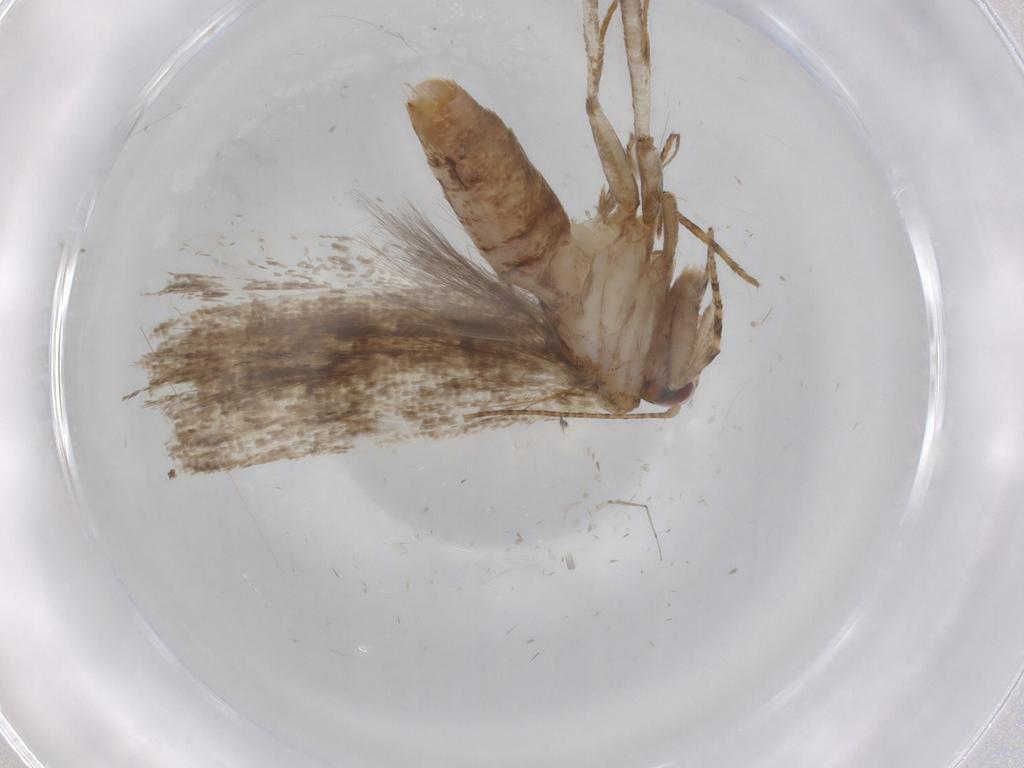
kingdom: Animalia
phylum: Arthropoda
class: Insecta
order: Lepidoptera
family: Gelechiidae
